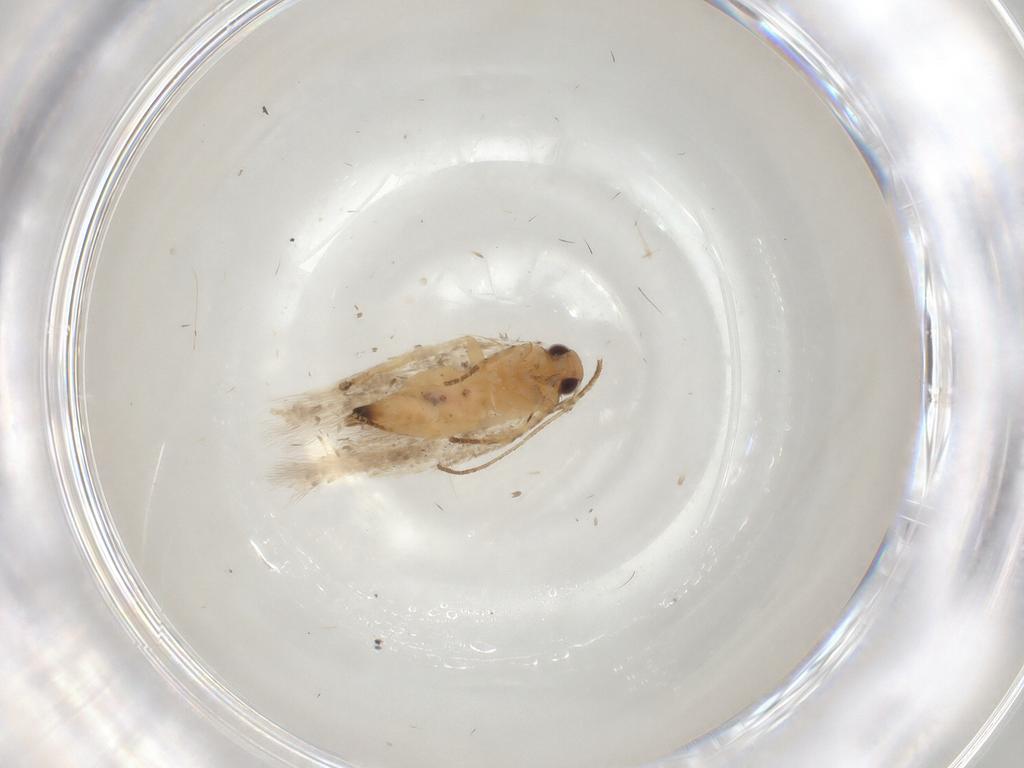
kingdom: Animalia
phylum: Arthropoda
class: Insecta
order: Lepidoptera
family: Gelechiidae
